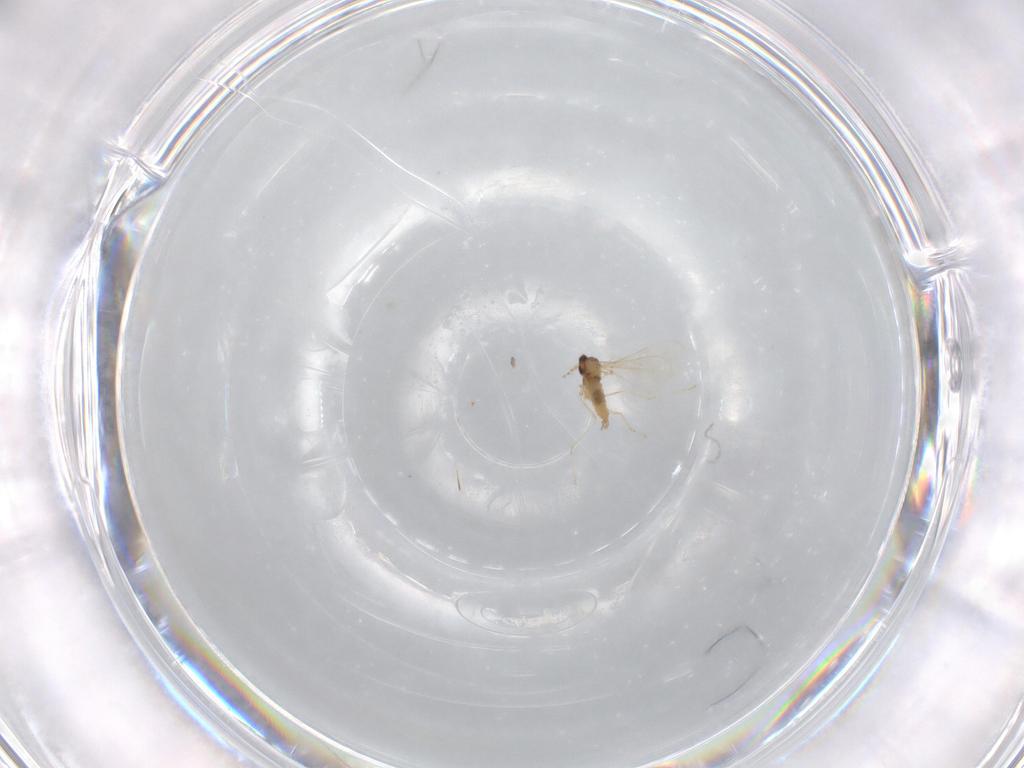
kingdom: Animalia
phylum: Arthropoda
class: Insecta
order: Diptera
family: Cecidomyiidae
